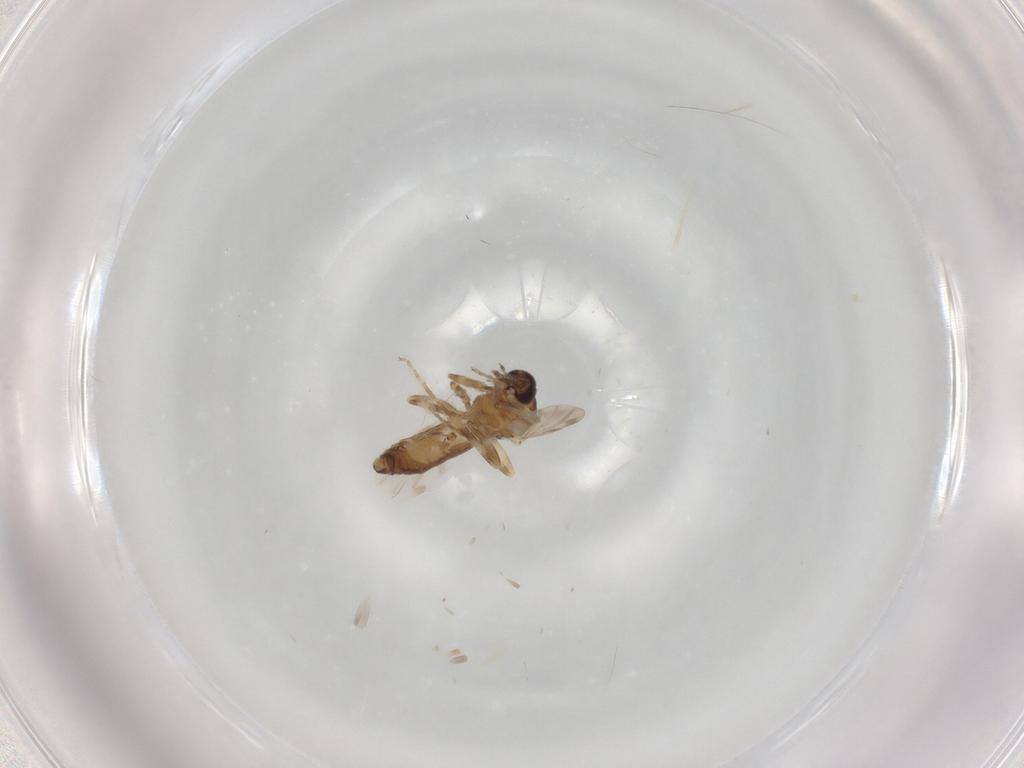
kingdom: Animalia
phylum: Arthropoda
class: Insecta
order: Diptera
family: Ceratopogonidae
